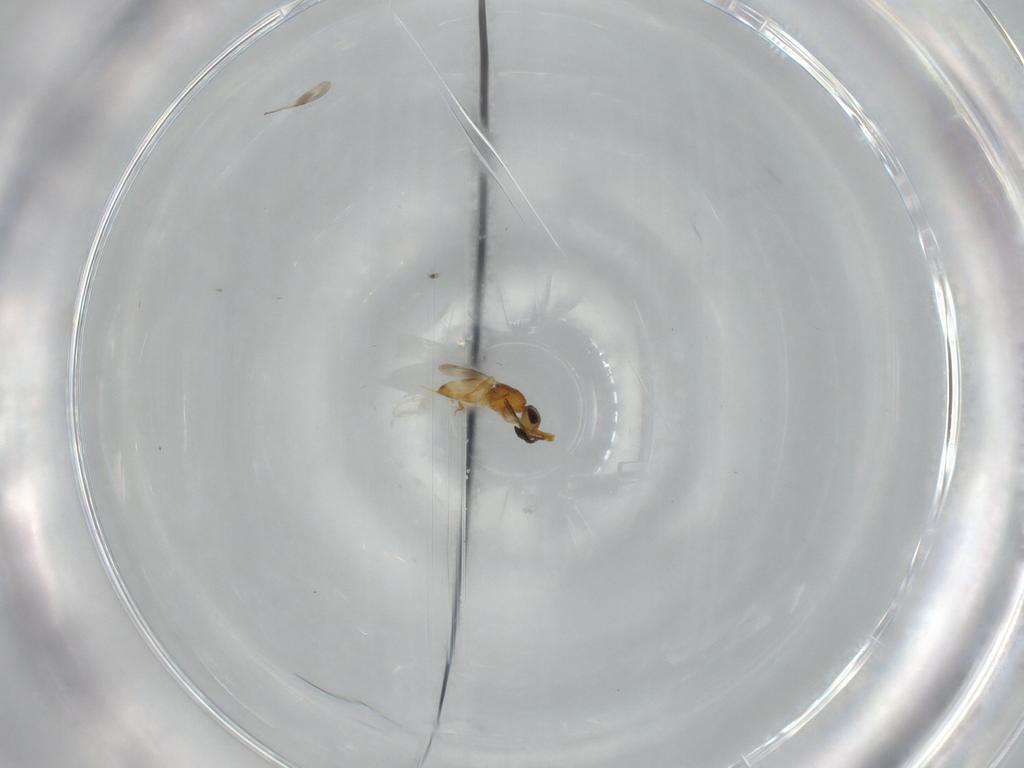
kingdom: Animalia
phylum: Arthropoda
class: Insecta
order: Hymenoptera
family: Ceraphronidae
